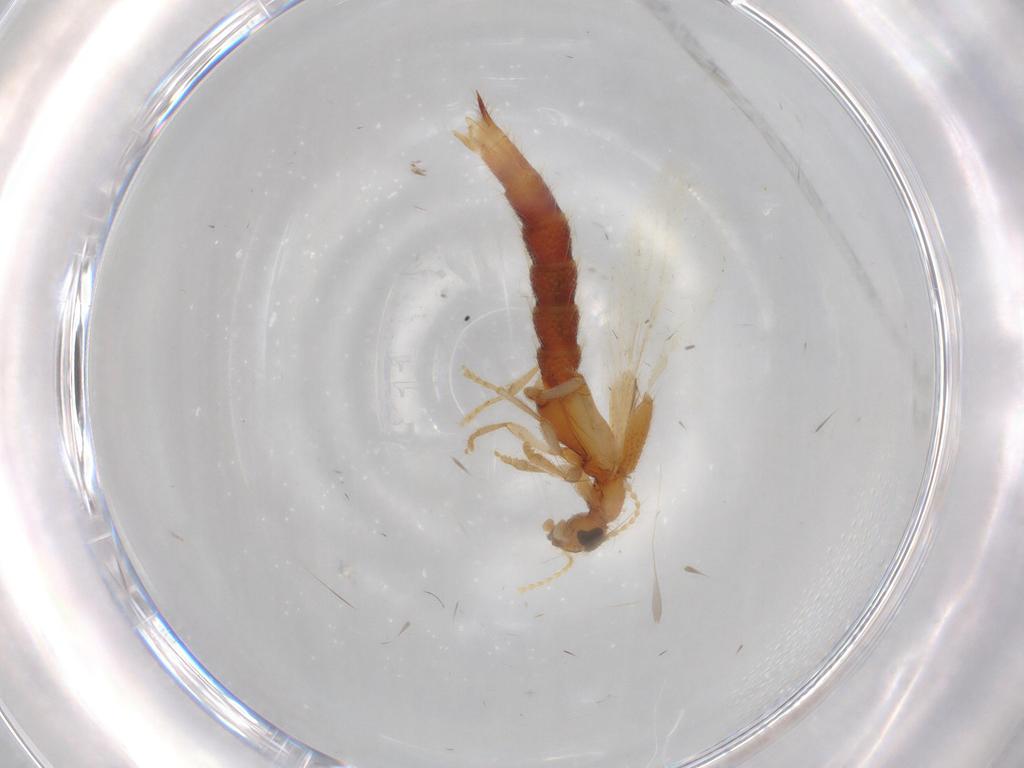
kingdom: Animalia
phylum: Arthropoda
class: Insecta
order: Coleoptera
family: Staphylinidae
